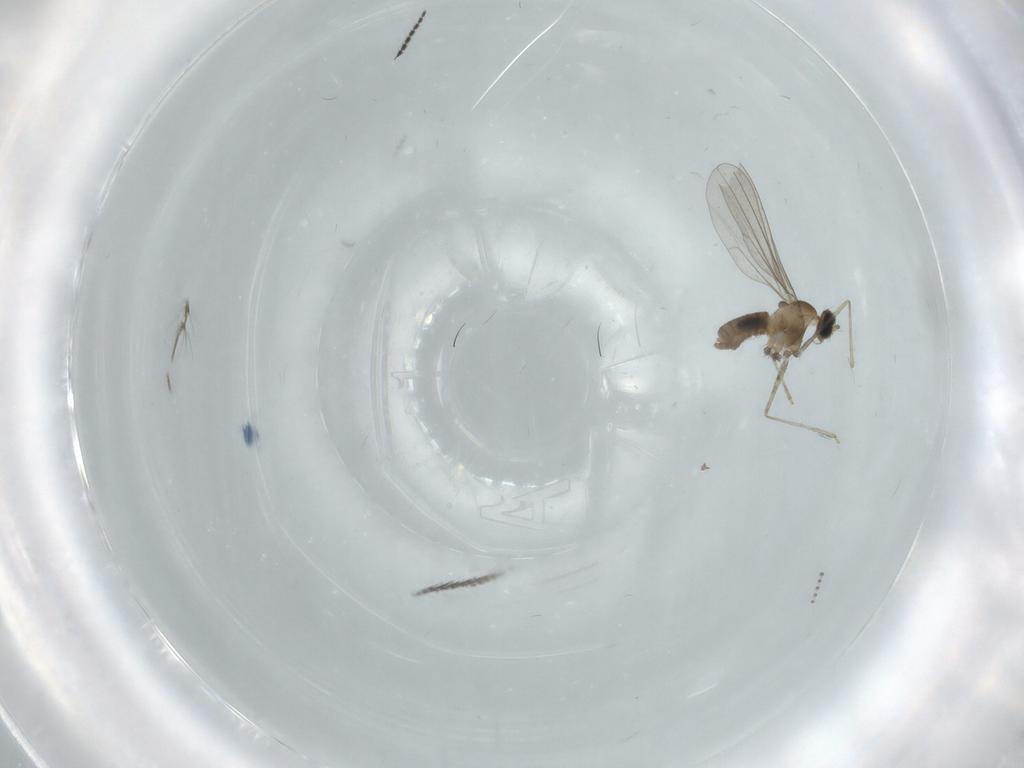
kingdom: Animalia
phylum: Arthropoda
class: Insecta
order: Diptera
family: Cecidomyiidae
